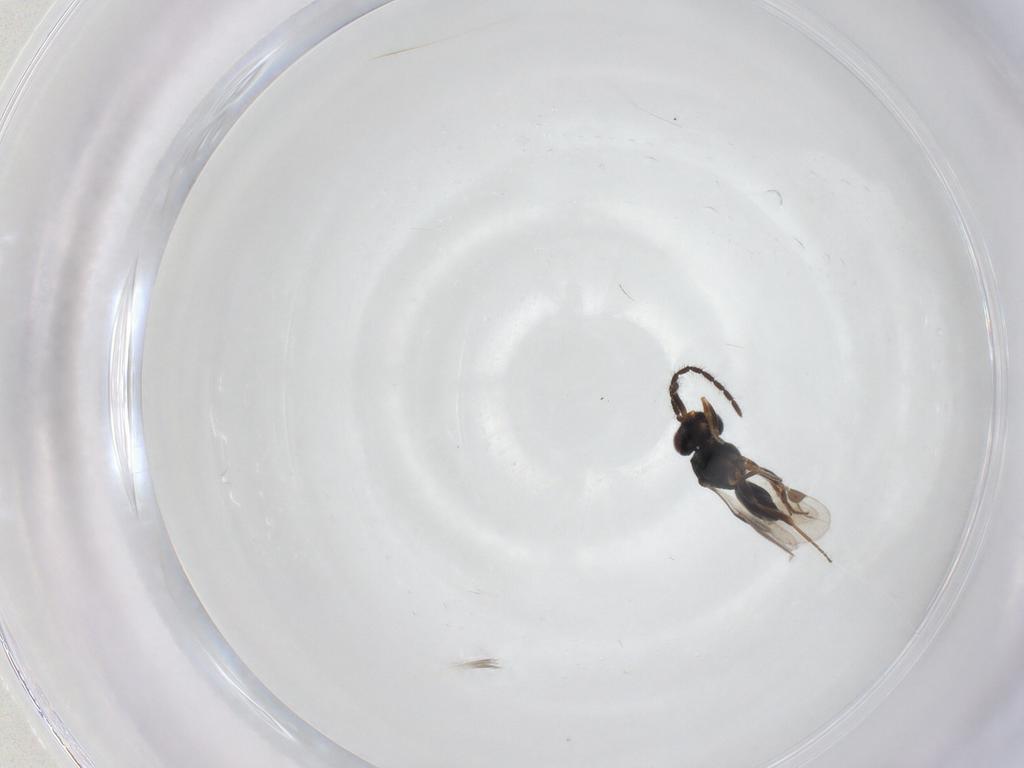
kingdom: Animalia
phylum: Arthropoda
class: Insecta
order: Hymenoptera
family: Megaspilidae
